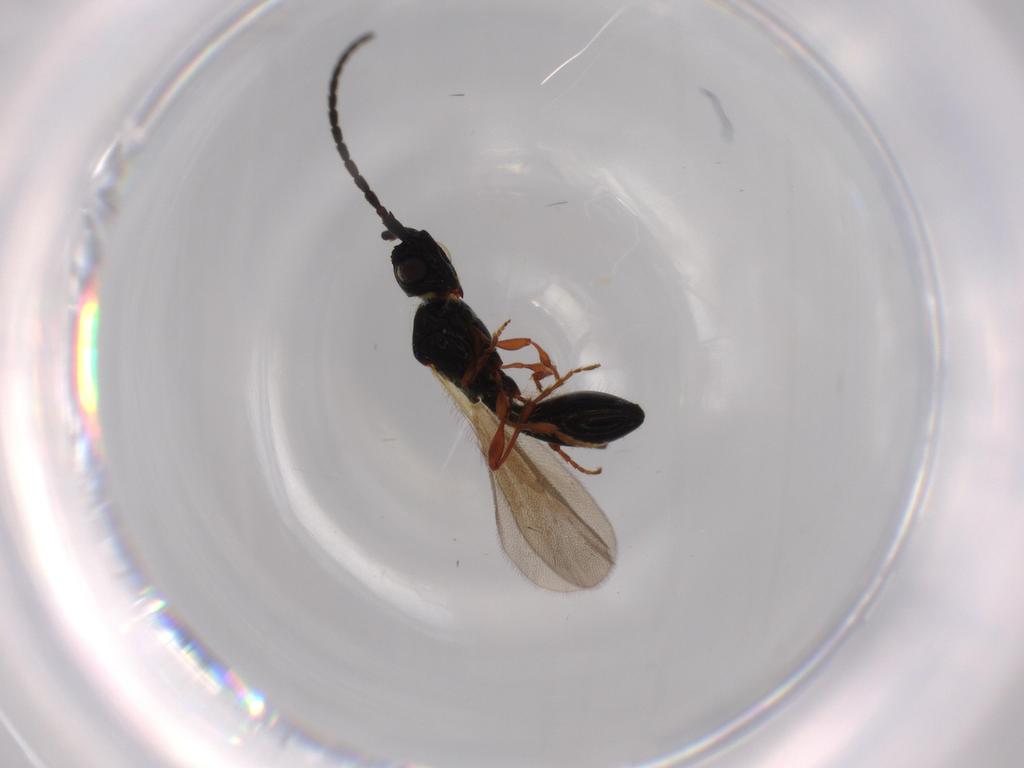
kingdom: Animalia
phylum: Arthropoda
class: Insecta
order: Hymenoptera
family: Diapriidae
